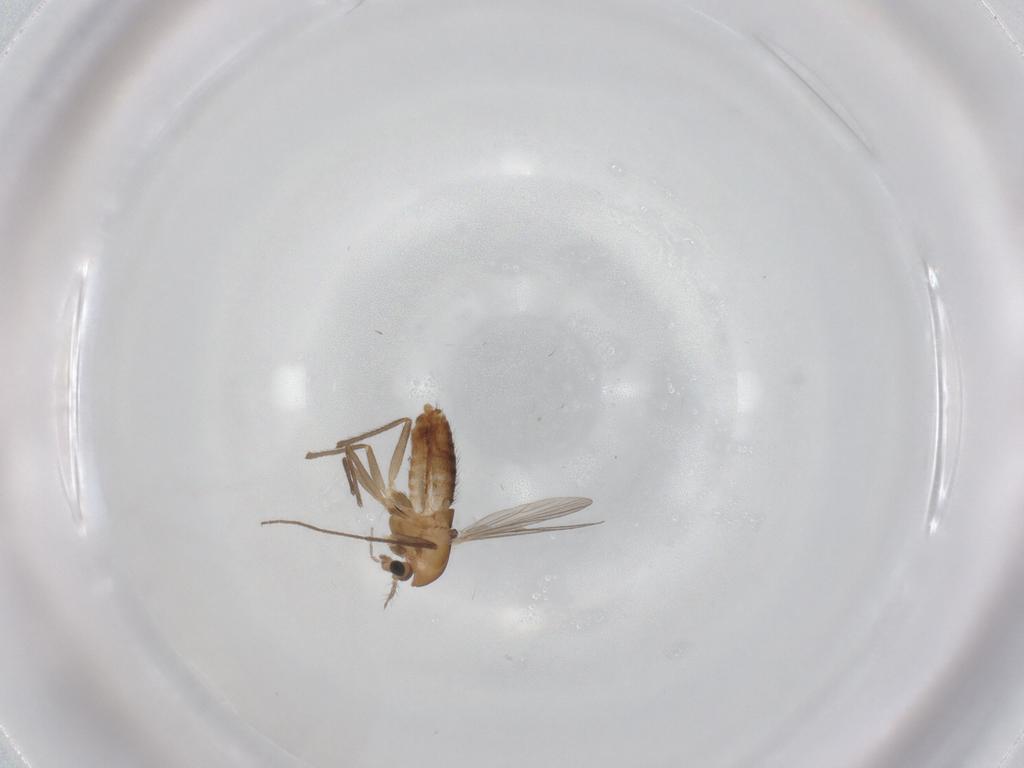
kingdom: Animalia
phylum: Arthropoda
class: Insecta
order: Diptera
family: Chironomidae
